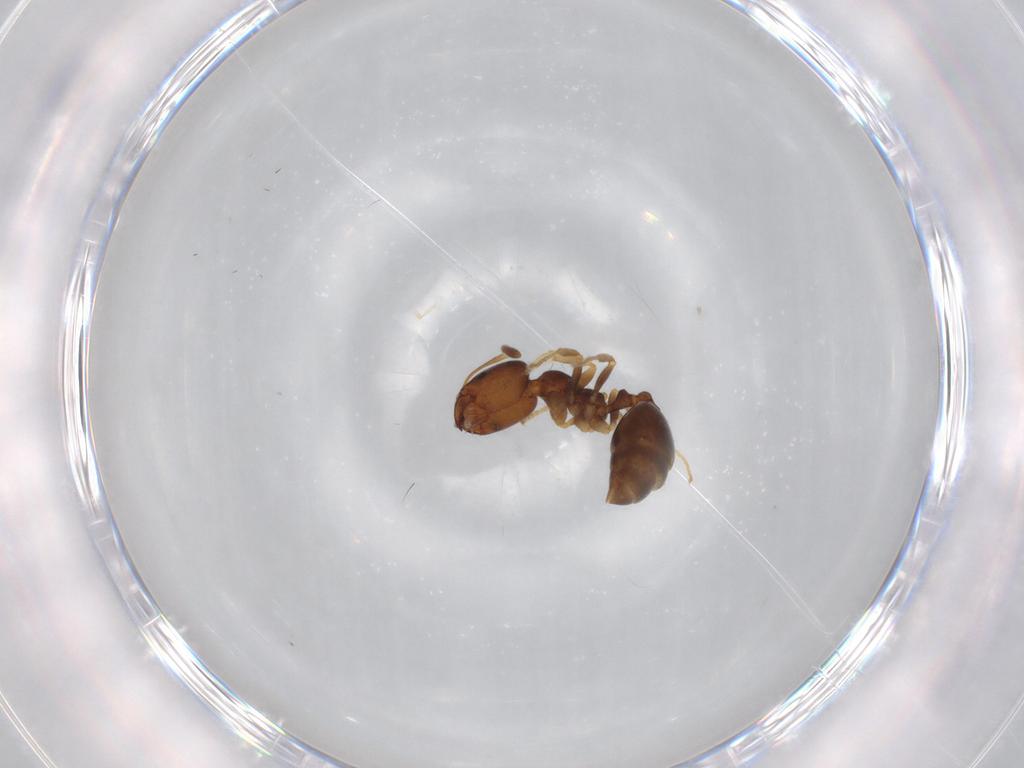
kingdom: Animalia
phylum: Arthropoda
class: Insecta
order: Hymenoptera
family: Formicidae
